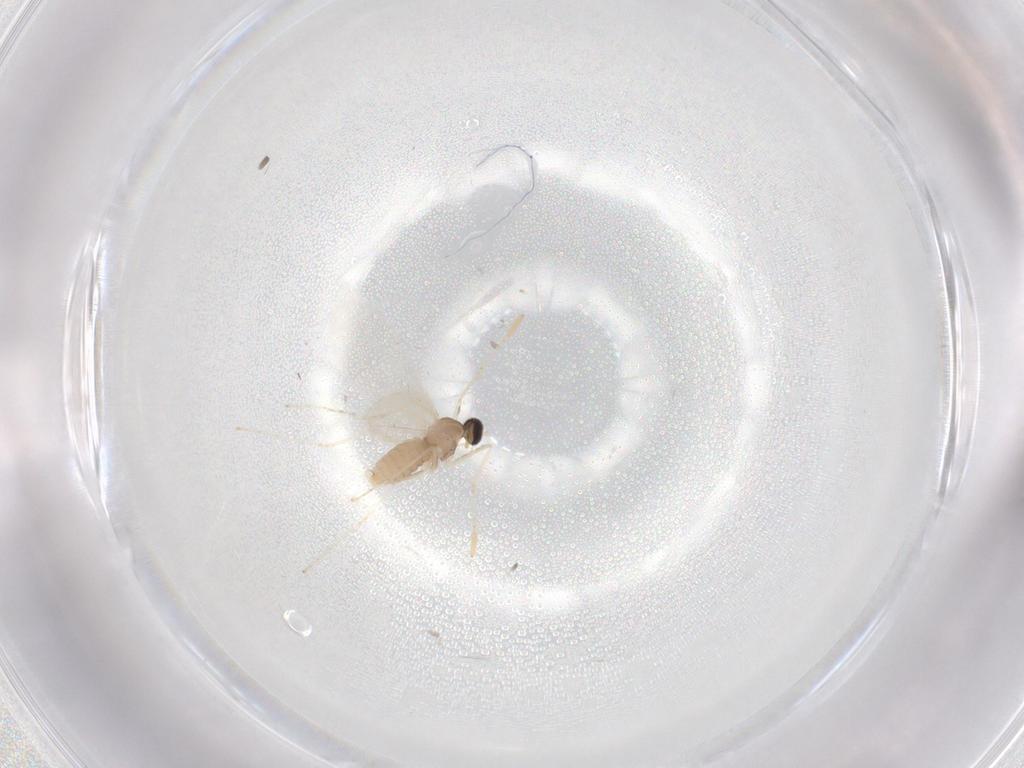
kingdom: Animalia
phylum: Arthropoda
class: Insecta
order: Diptera
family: Cecidomyiidae
